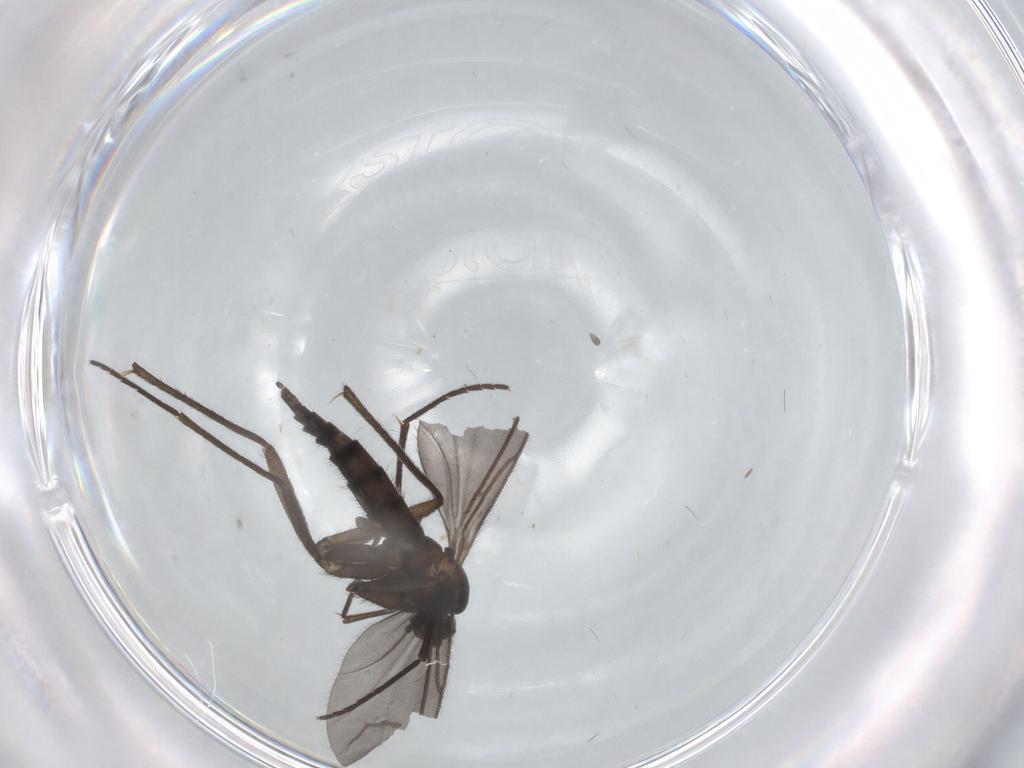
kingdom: Animalia
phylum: Arthropoda
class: Insecta
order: Diptera
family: Sciaridae
